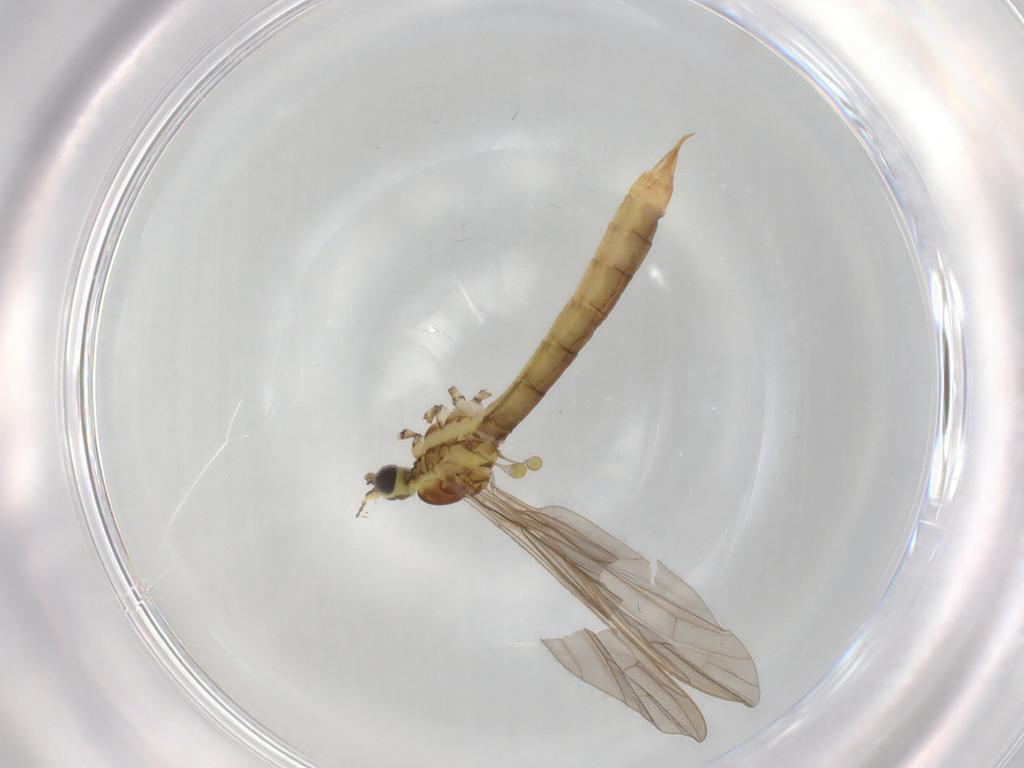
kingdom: Animalia
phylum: Arthropoda
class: Insecta
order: Diptera
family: Limoniidae
